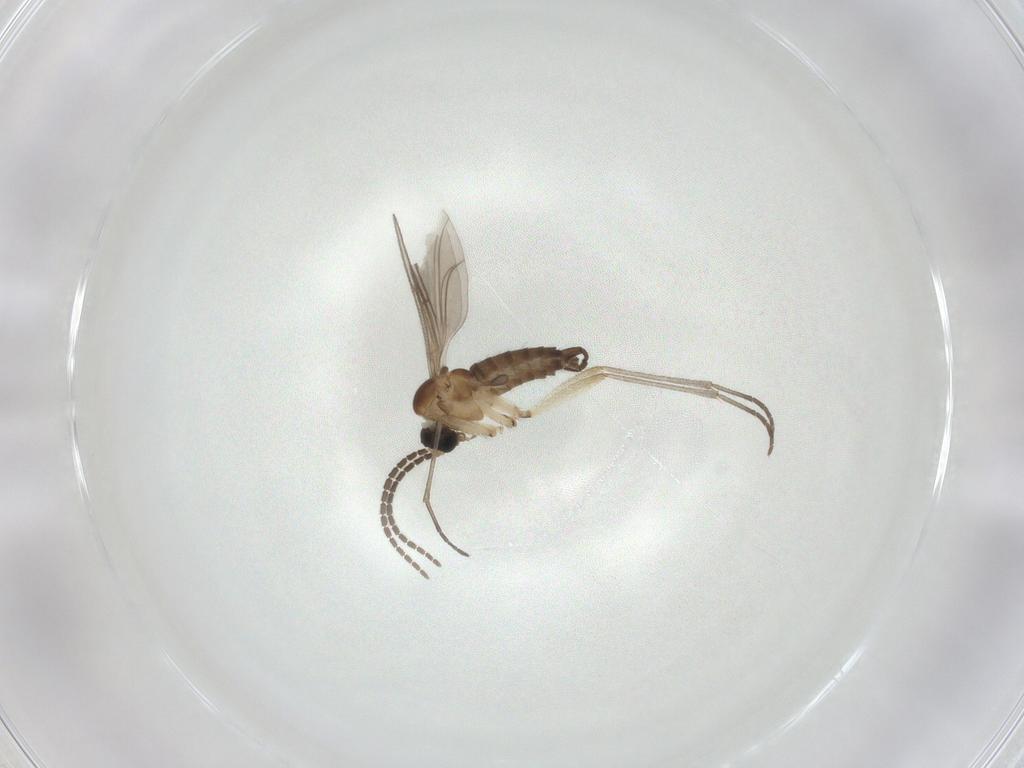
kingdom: Animalia
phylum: Arthropoda
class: Insecta
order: Diptera
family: Sciaridae
